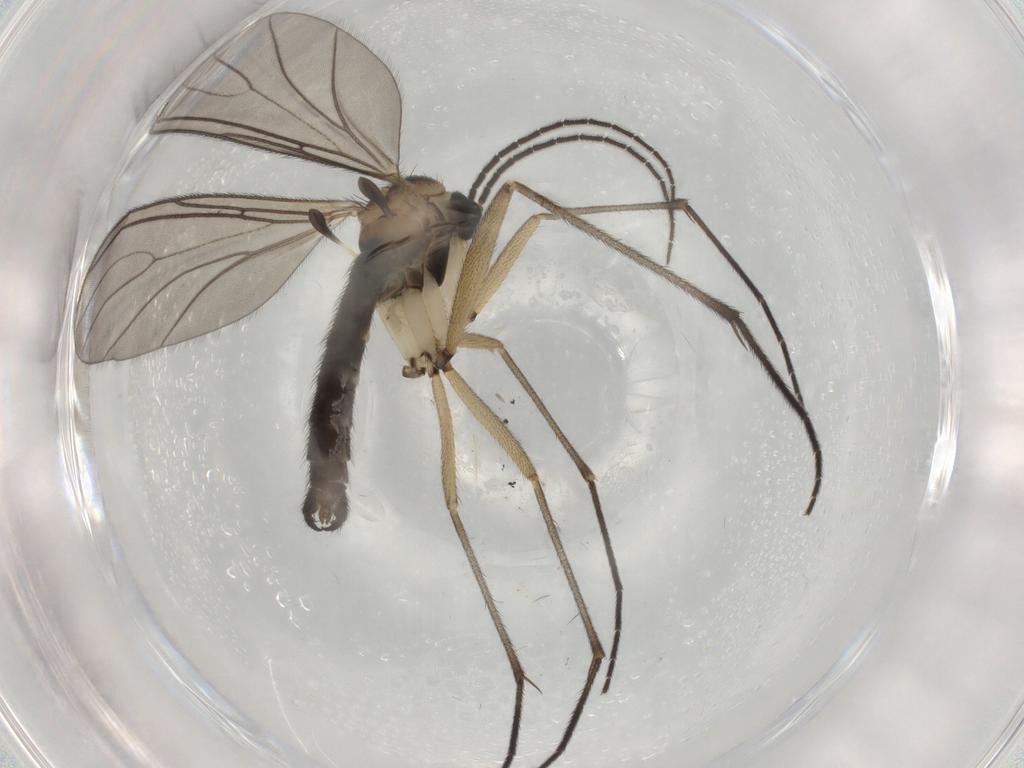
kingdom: Animalia
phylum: Arthropoda
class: Insecta
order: Diptera
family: Sciaridae
